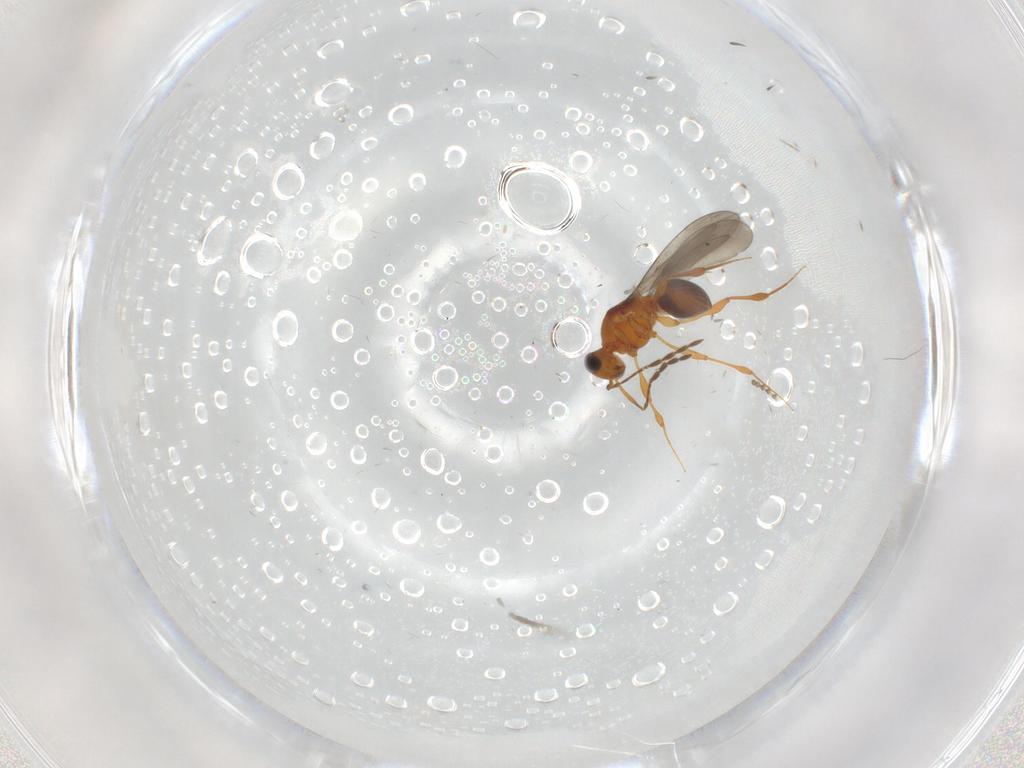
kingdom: Animalia
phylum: Arthropoda
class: Insecta
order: Hymenoptera
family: Platygastridae
